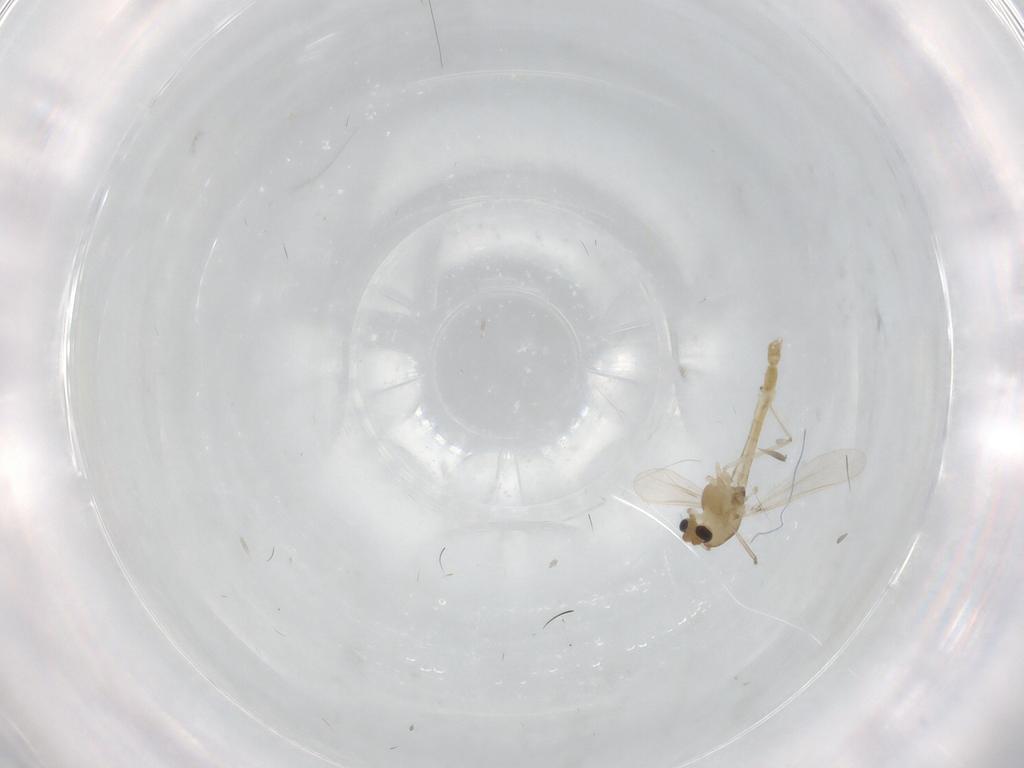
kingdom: Animalia
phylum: Arthropoda
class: Insecta
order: Diptera
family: Chironomidae
